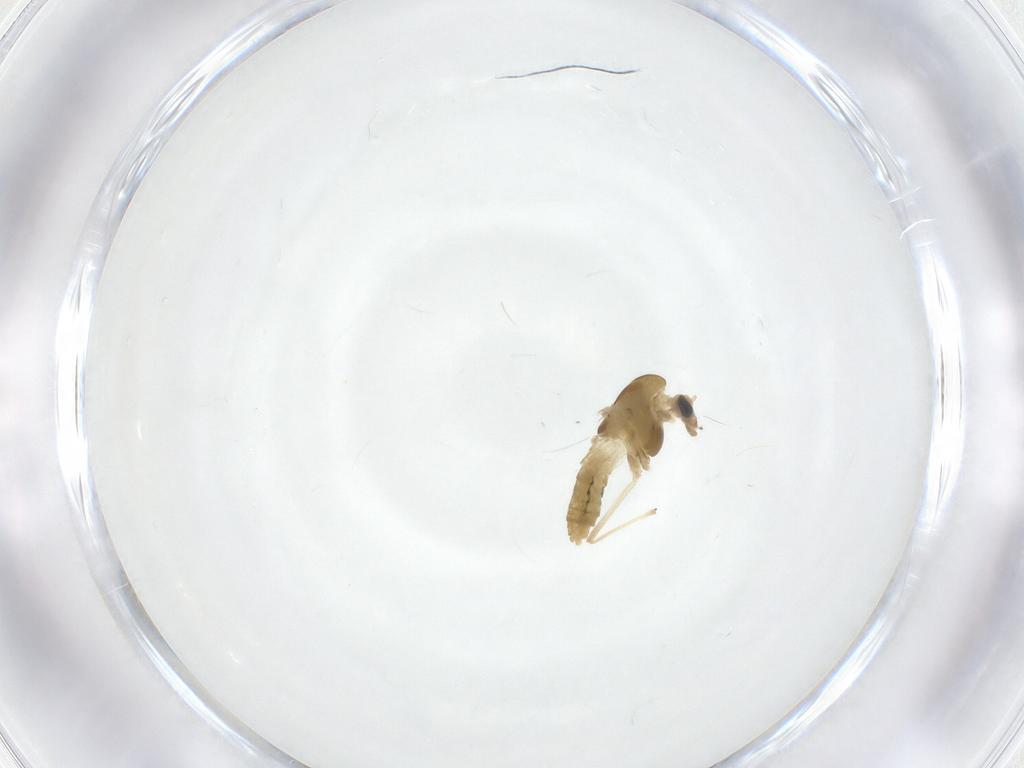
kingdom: Animalia
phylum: Arthropoda
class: Insecta
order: Diptera
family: Chironomidae
